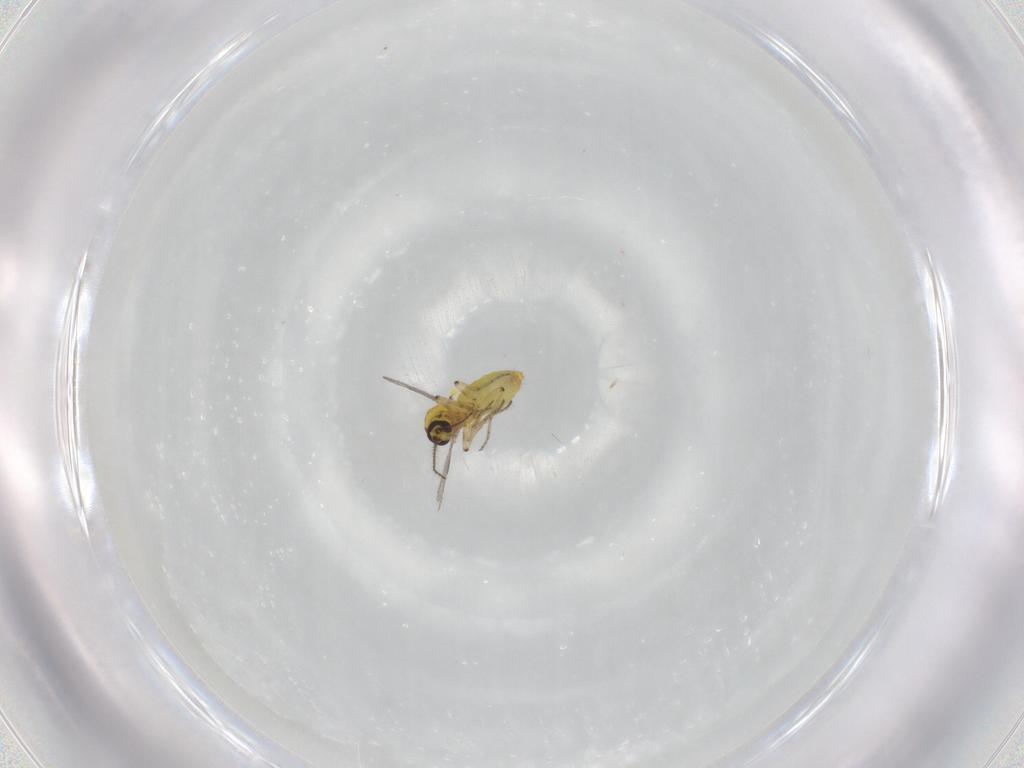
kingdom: Animalia
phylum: Arthropoda
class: Insecta
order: Diptera
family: Ceratopogonidae
